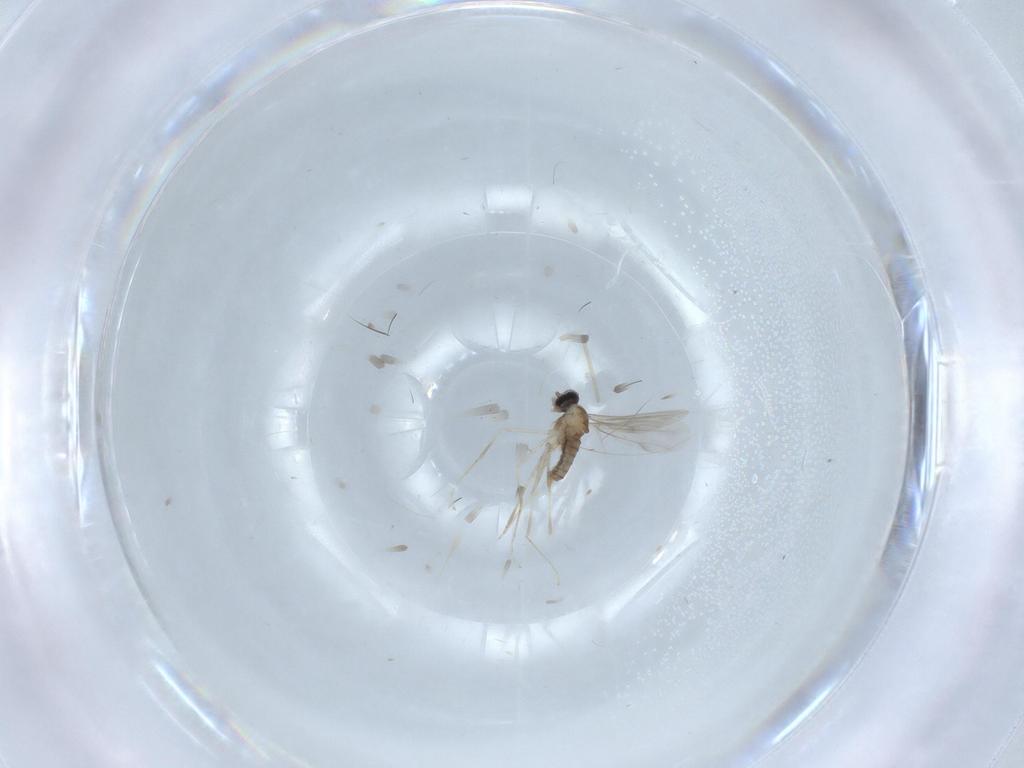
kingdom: Animalia
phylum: Arthropoda
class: Insecta
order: Diptera
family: Cecidomyiidae
